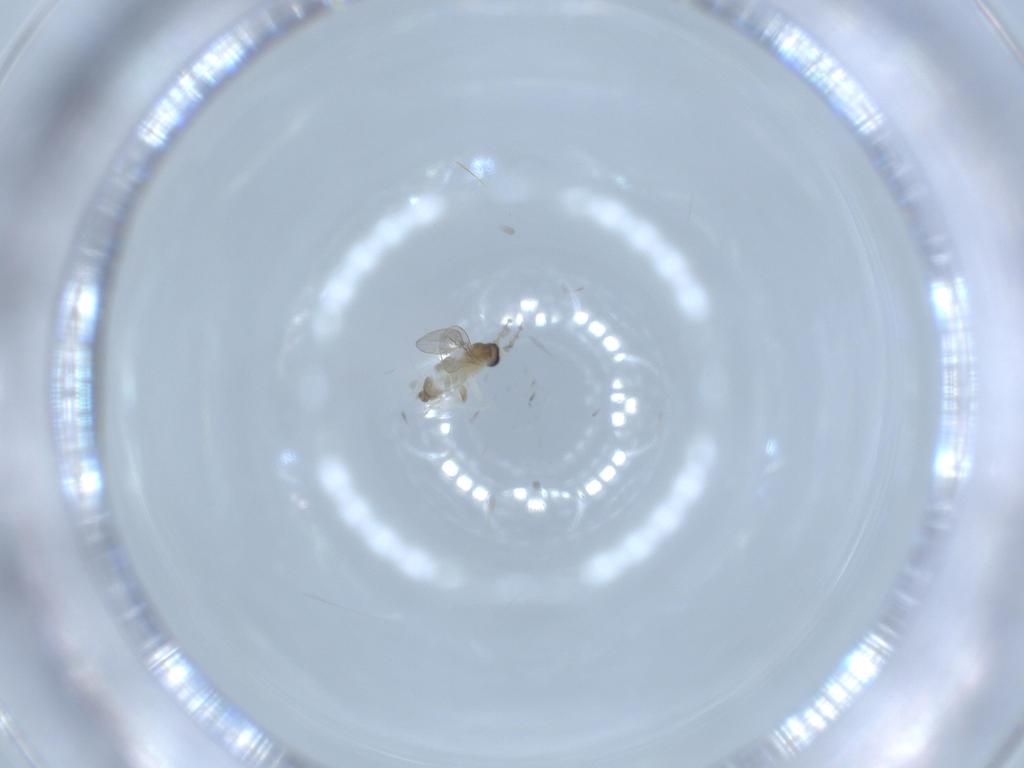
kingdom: Animalia
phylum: Arthropoda
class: Insecta
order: Diptera
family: Cecidomyiidae
